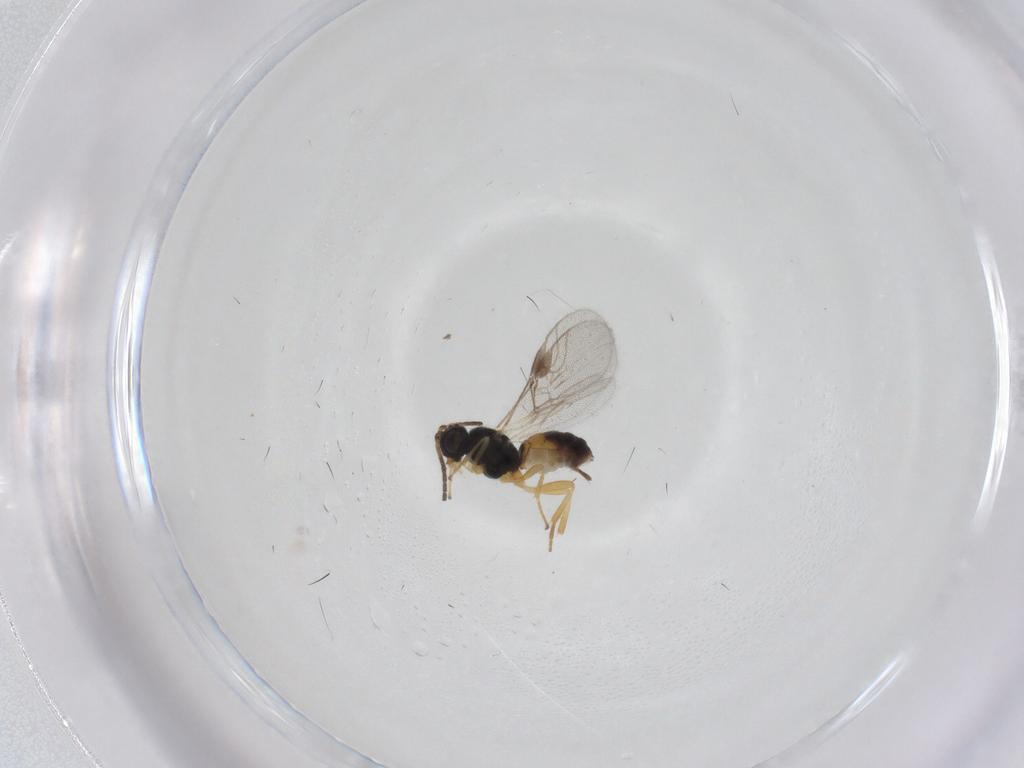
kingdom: Animalia
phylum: Arthropoda
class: Insecta
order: Hymenoptera
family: Braconidae
